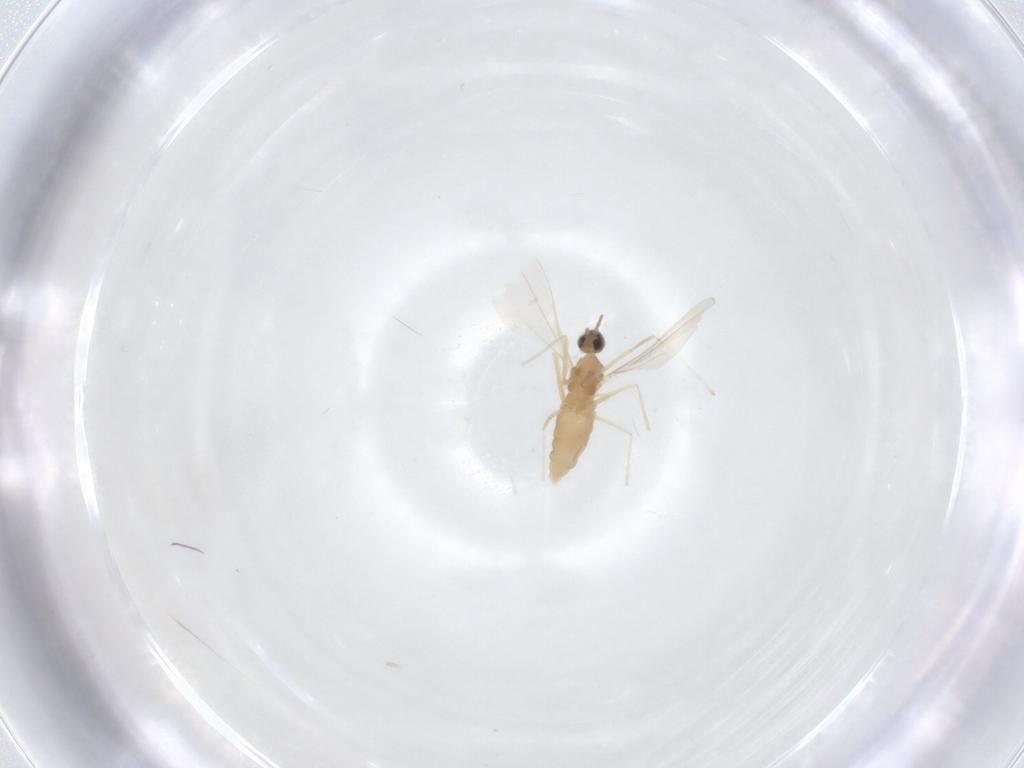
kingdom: Animalia
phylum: Arthropoda
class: Insecta
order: Diptera
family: Cecidomyiidae
